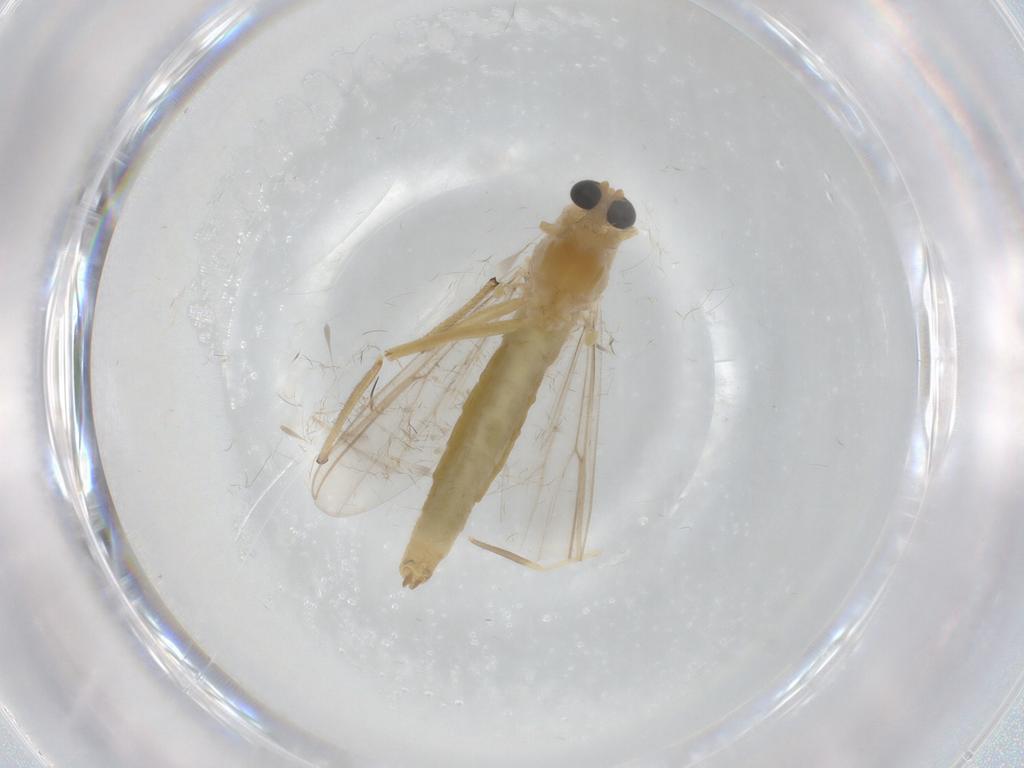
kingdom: Animalia
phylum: Arthropoda
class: Insecta
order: Diptera
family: Chironomidae
